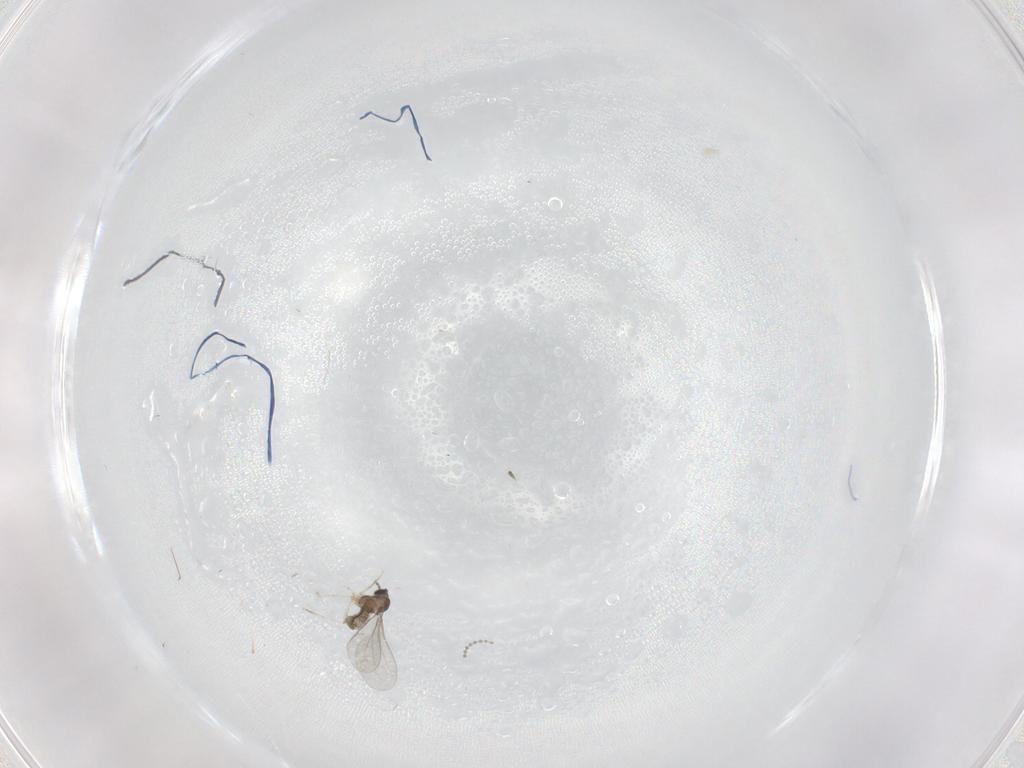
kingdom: Animalia
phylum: Arthropoda
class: Insecta
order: Diptera
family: Cecidomyiidae
